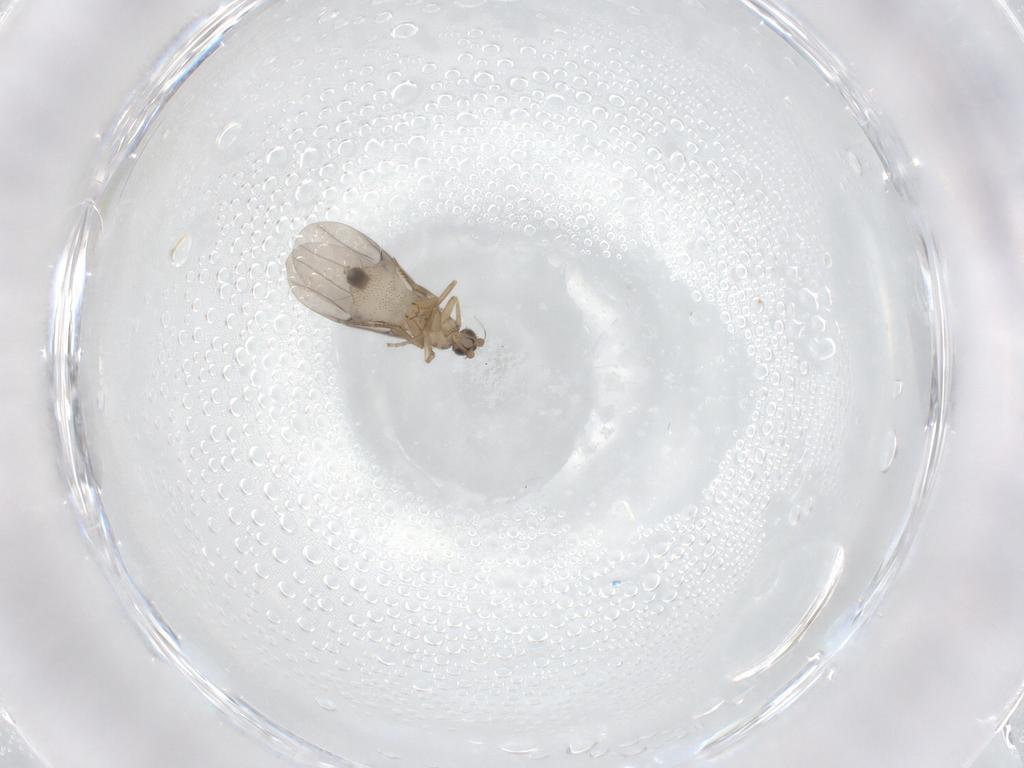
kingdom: Animalia
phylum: Arthropoda
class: Insecta
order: Diptera
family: Phoridae
